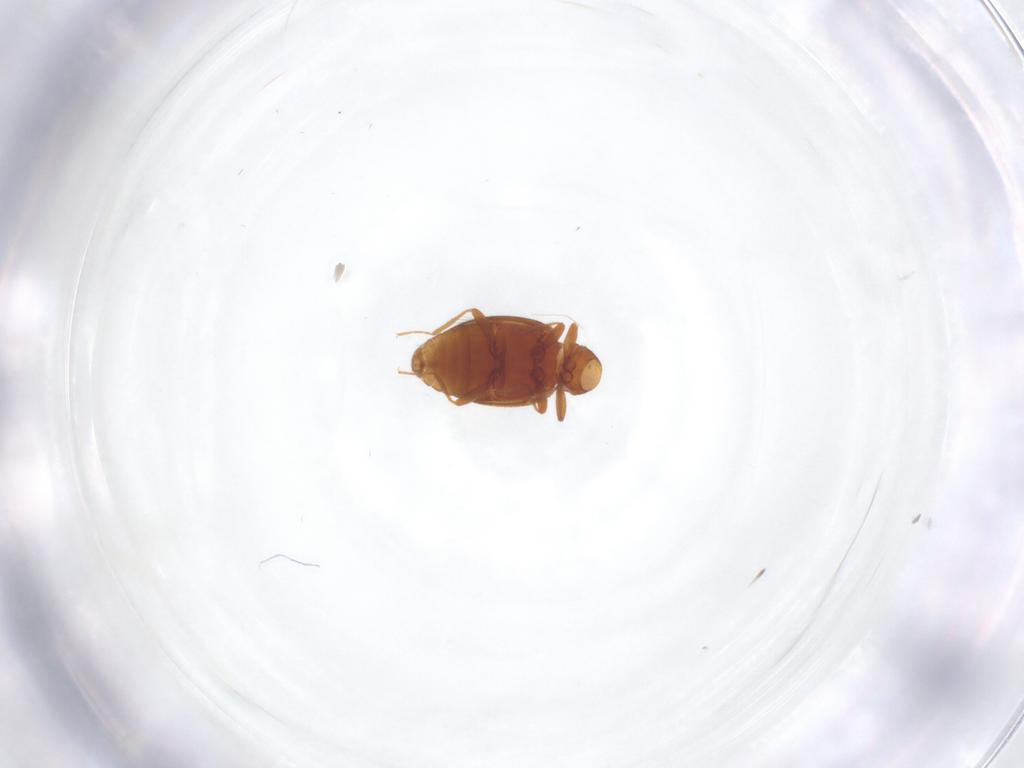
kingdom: Animalia
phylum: Arthropoda
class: Insecta
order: Coleoptera
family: Latridiidae
